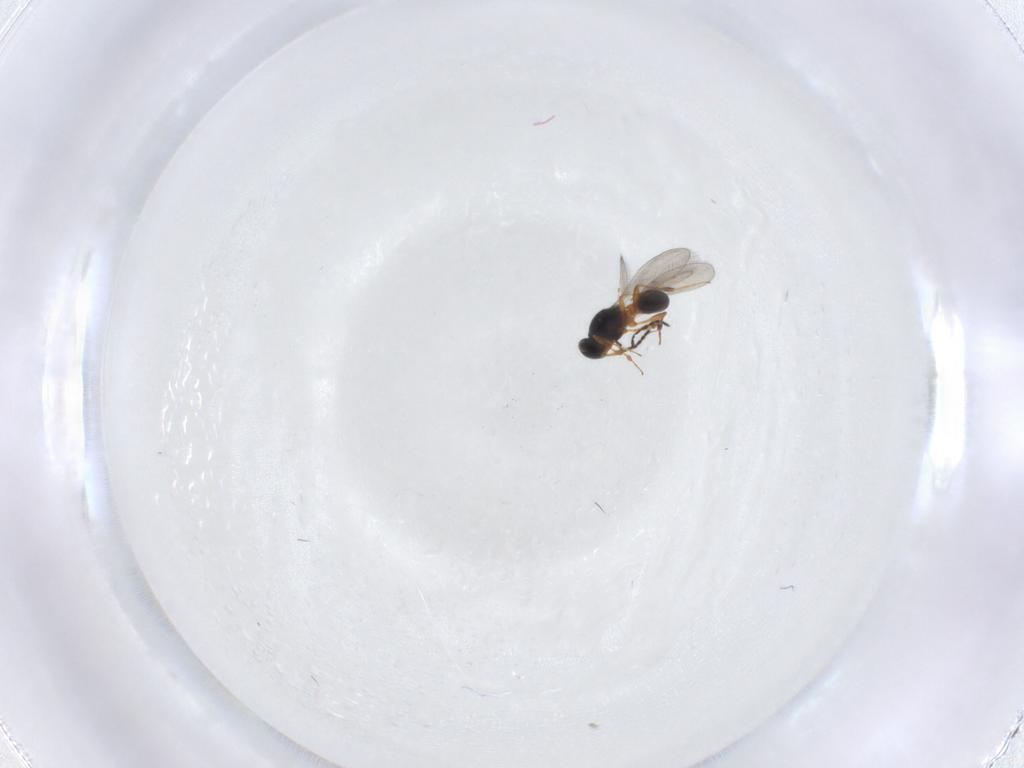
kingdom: Animalia
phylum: Arthropoda
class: Insecta
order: Hymenoptera
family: Platygastridae
